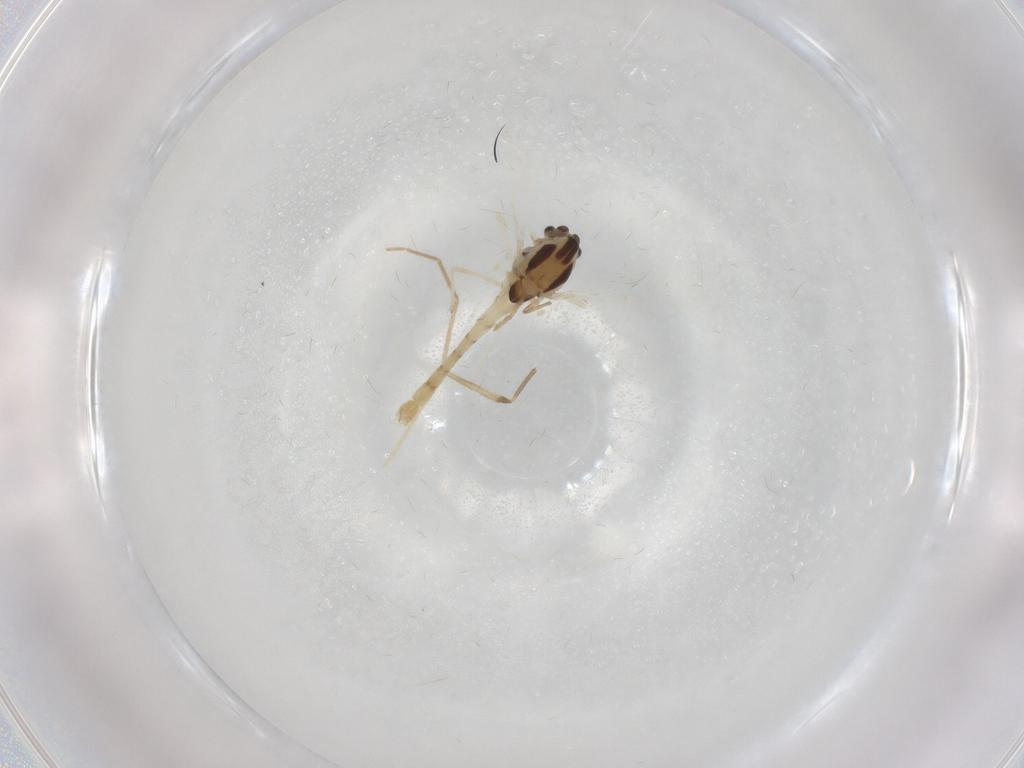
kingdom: Animalia
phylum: Arthropoda
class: Insecta
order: Diptera
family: Chironomidae
